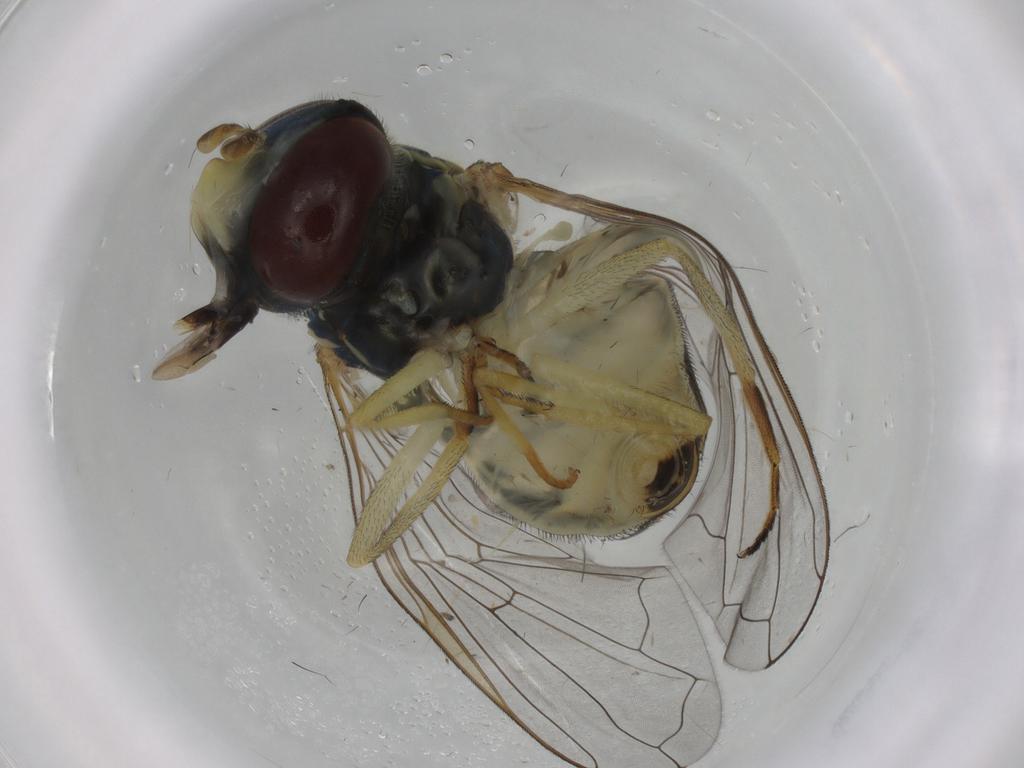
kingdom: Animalia
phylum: Arthropoda
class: Insecta
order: Diptera
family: Syrphidae
